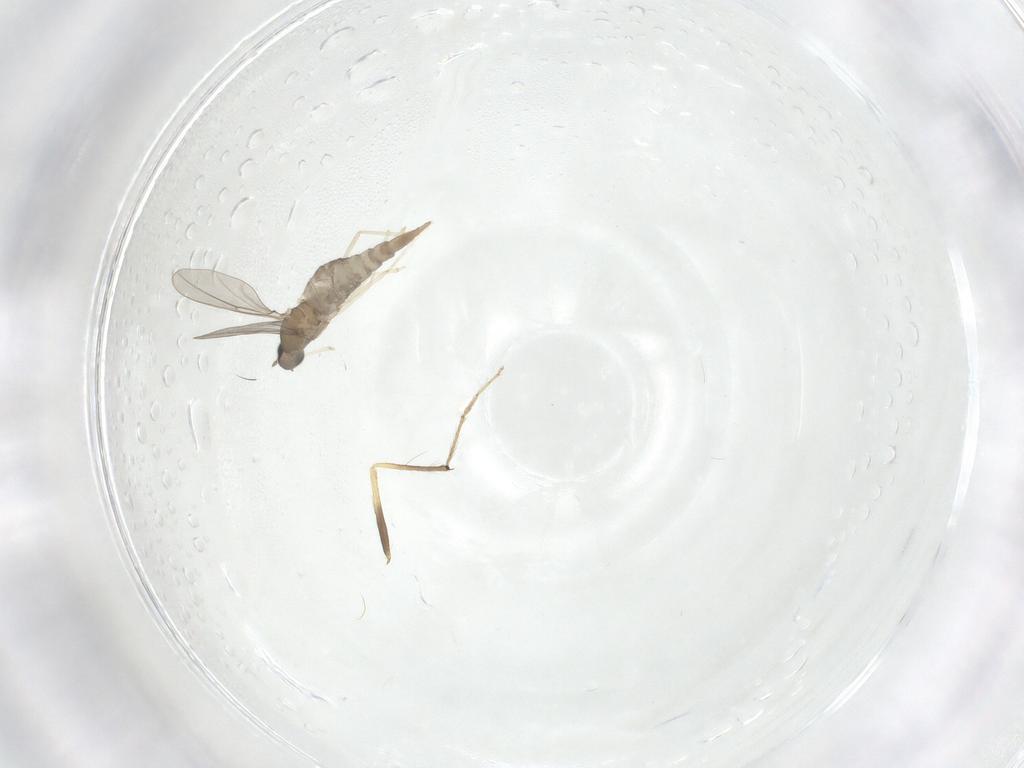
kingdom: Animalia
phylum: Arthropoda
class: Insecta
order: Diptera
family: Cecidomyiidae
